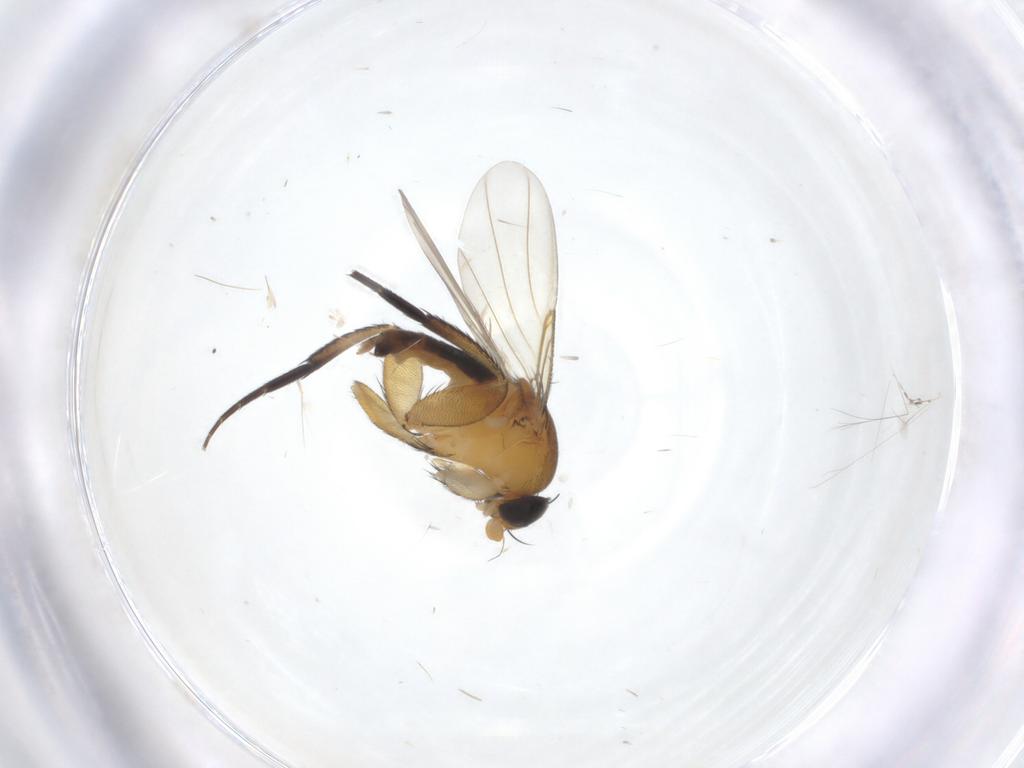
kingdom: Animalia
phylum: Arthropoda
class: Insecta
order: Diptera
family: Phoridae
